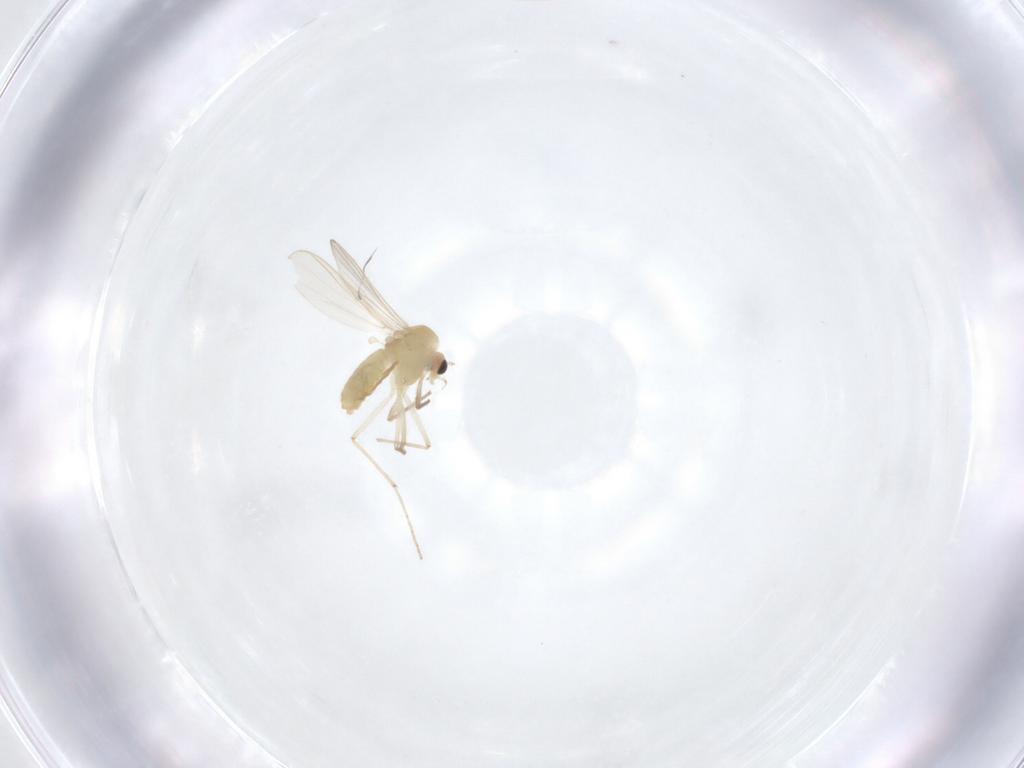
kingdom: Animalia
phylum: Arthropoda
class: Insecta
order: Diptera
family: Chironomidae
